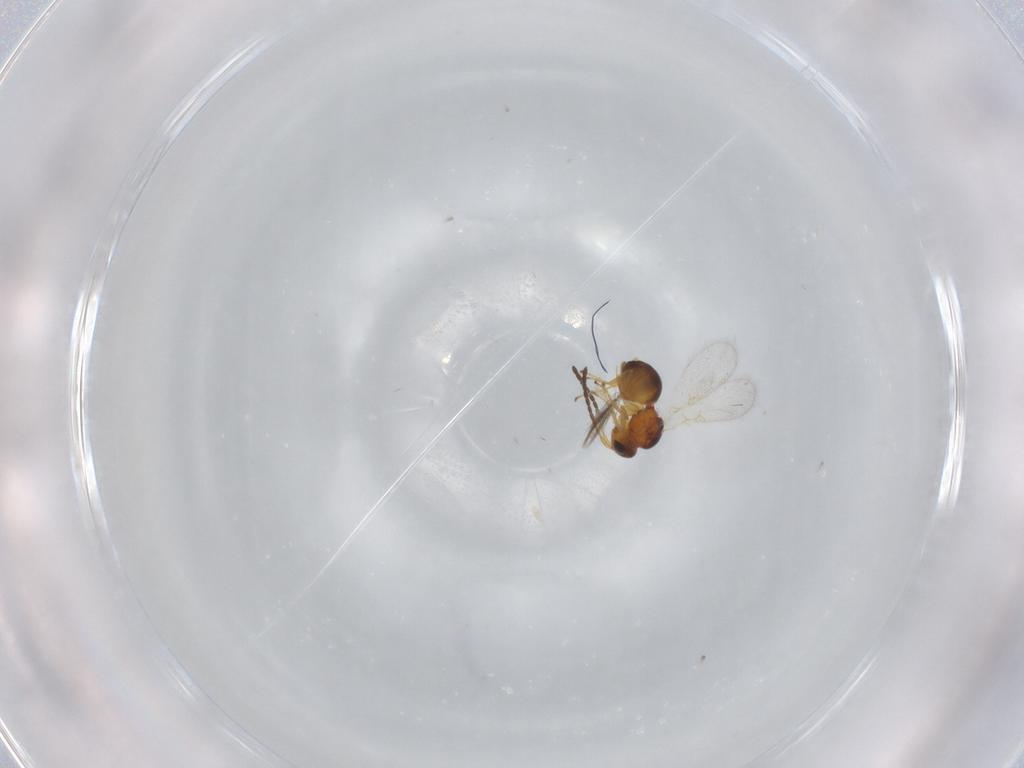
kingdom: Animalia
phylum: Arthropoda
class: Insecta
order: Hymenoptera
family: Figitidae
